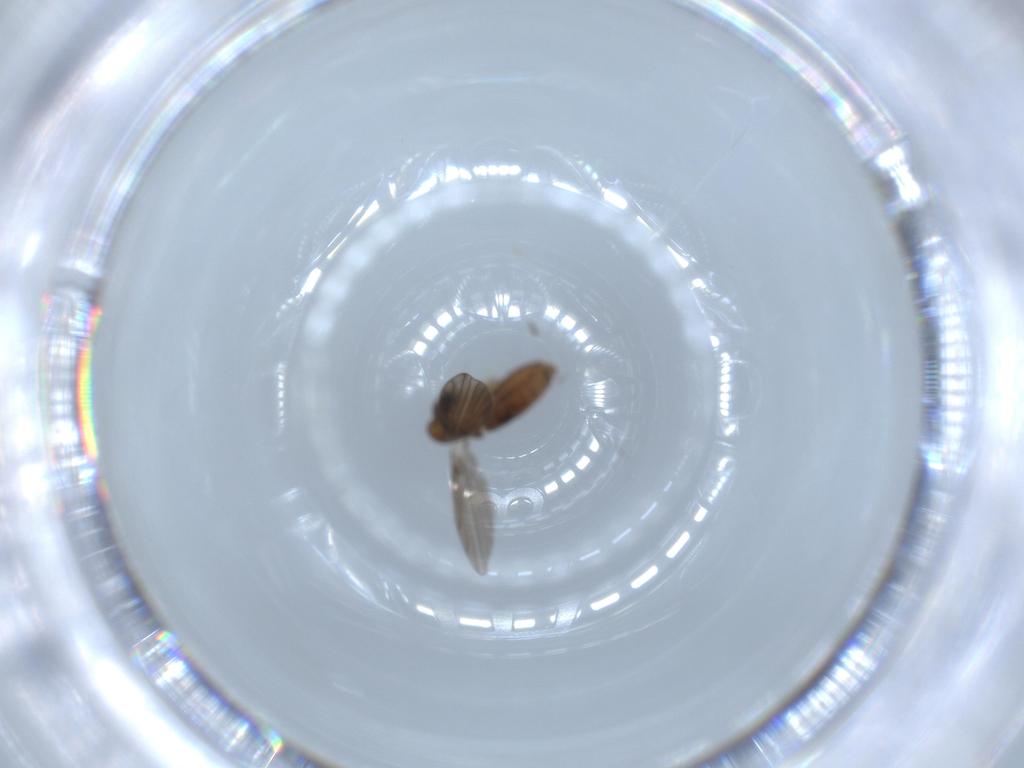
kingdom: Animalia
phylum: Arthropoda
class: Insecta
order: Diptera
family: Psychodidae
